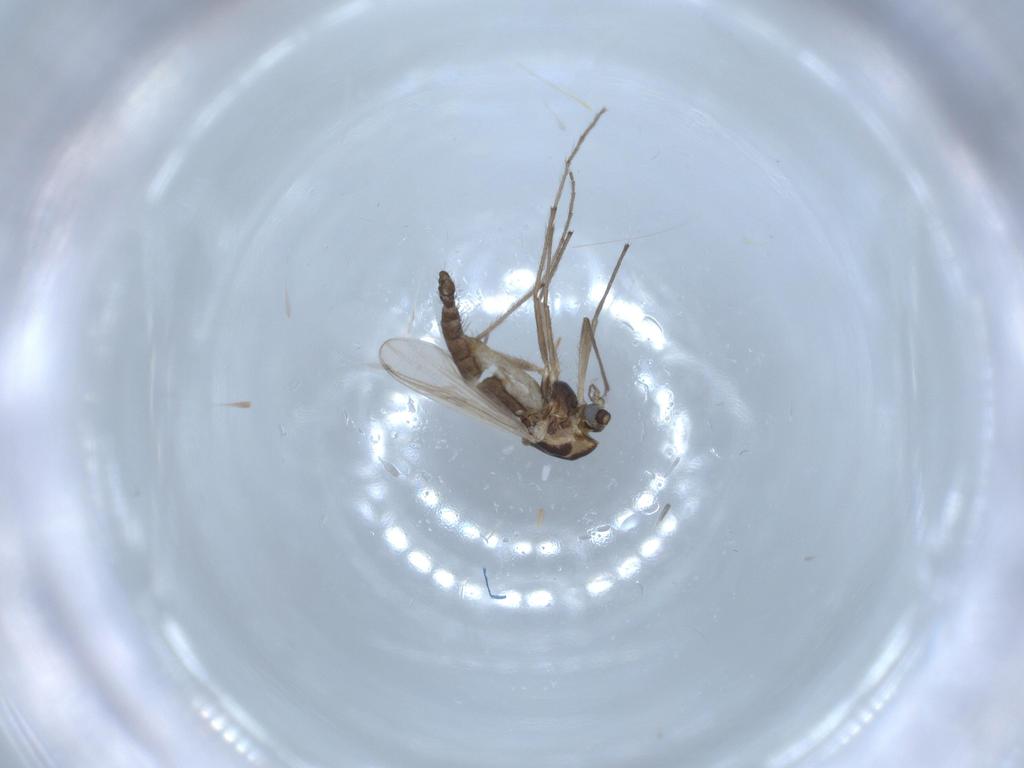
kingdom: Animalia
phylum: Arthropoda
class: Insecta
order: Diptera
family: Chironomidae
